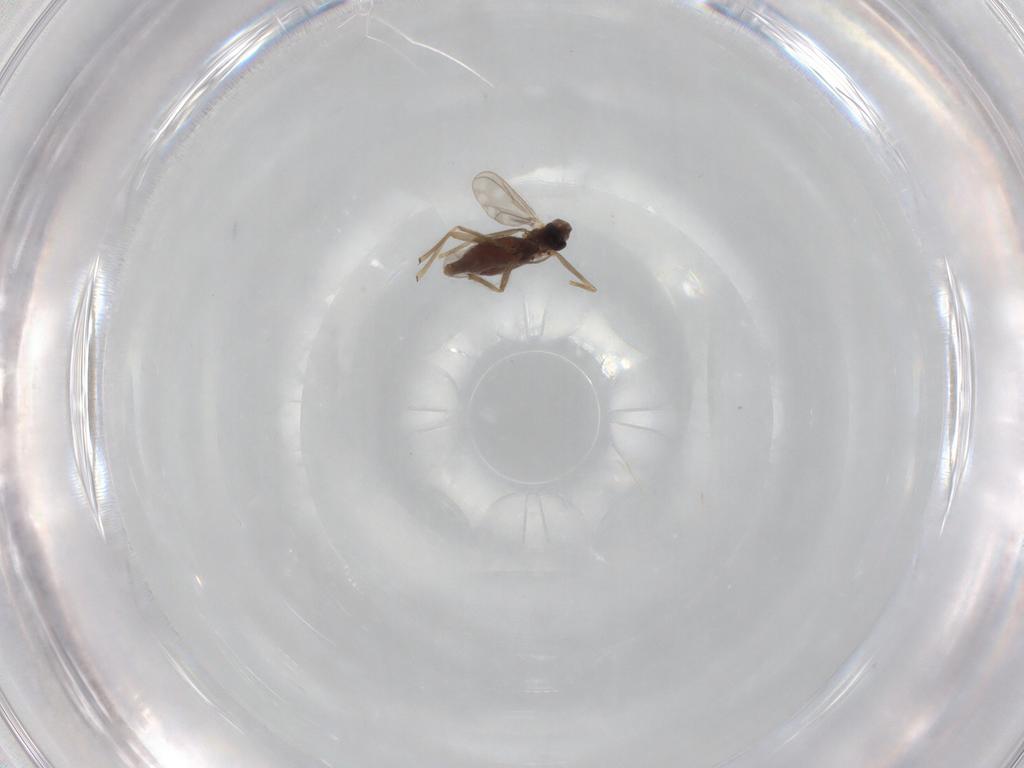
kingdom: Animalia
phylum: Arthropoda
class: Insecta
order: Diptera
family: Chironomidae
